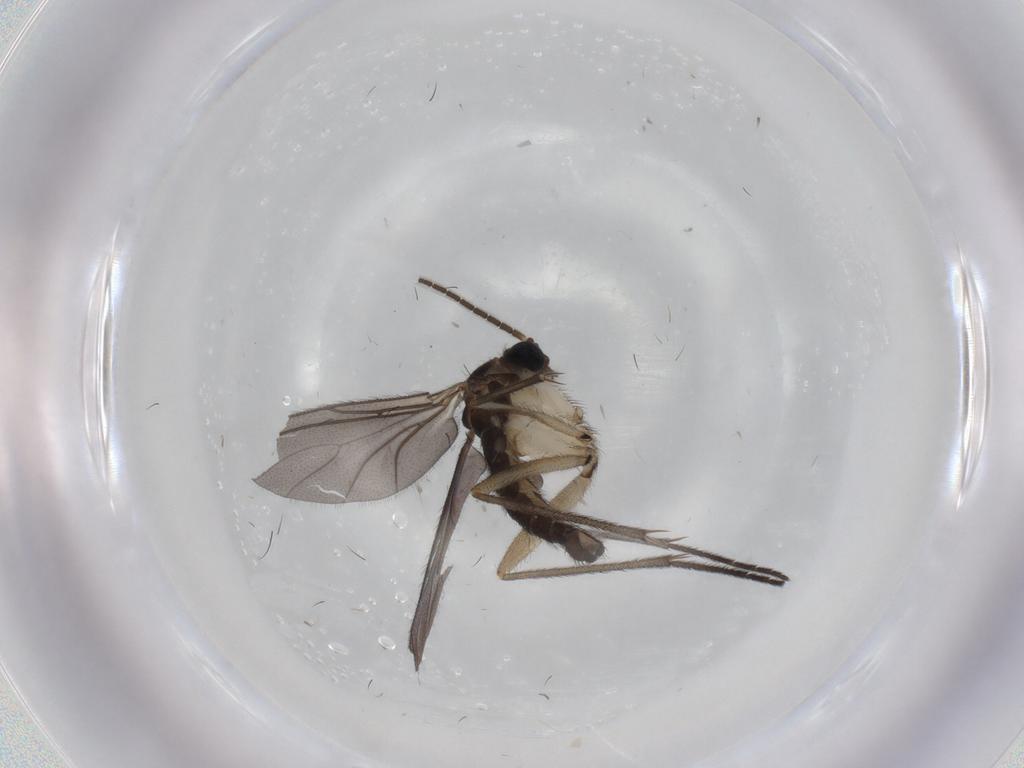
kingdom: Animalia
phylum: Arthropoda
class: Insecta
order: Diptera
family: Sciaridae
